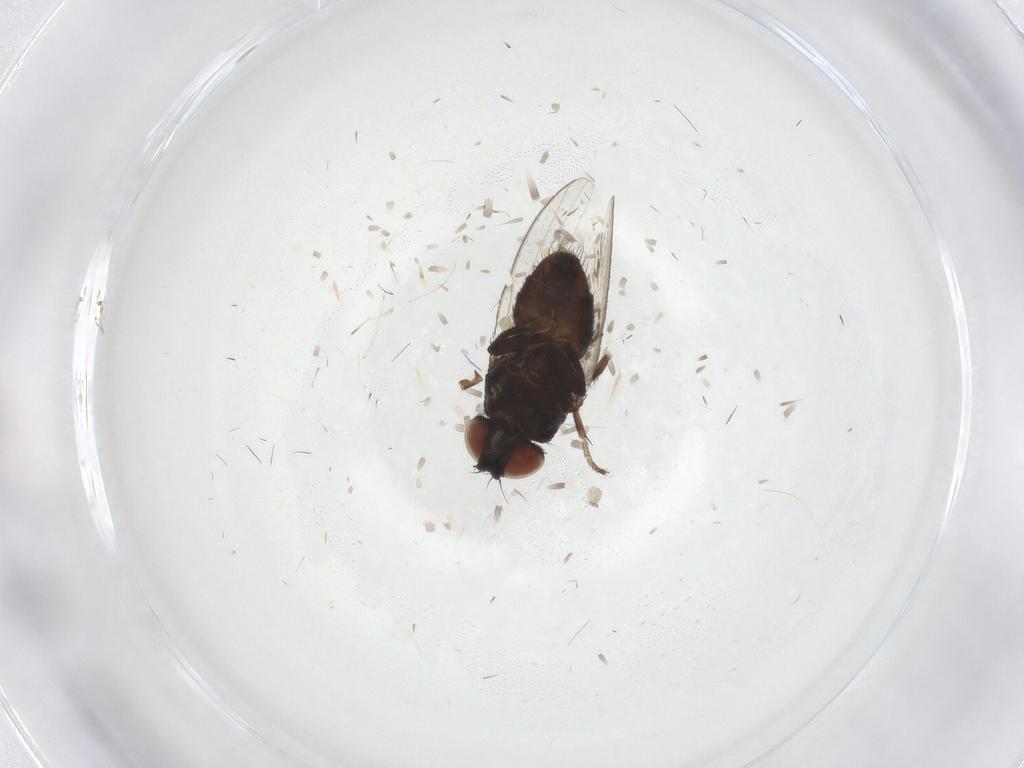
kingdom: Animalia
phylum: Arthropoda
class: Insecta
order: Diptera
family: Milichiidae
